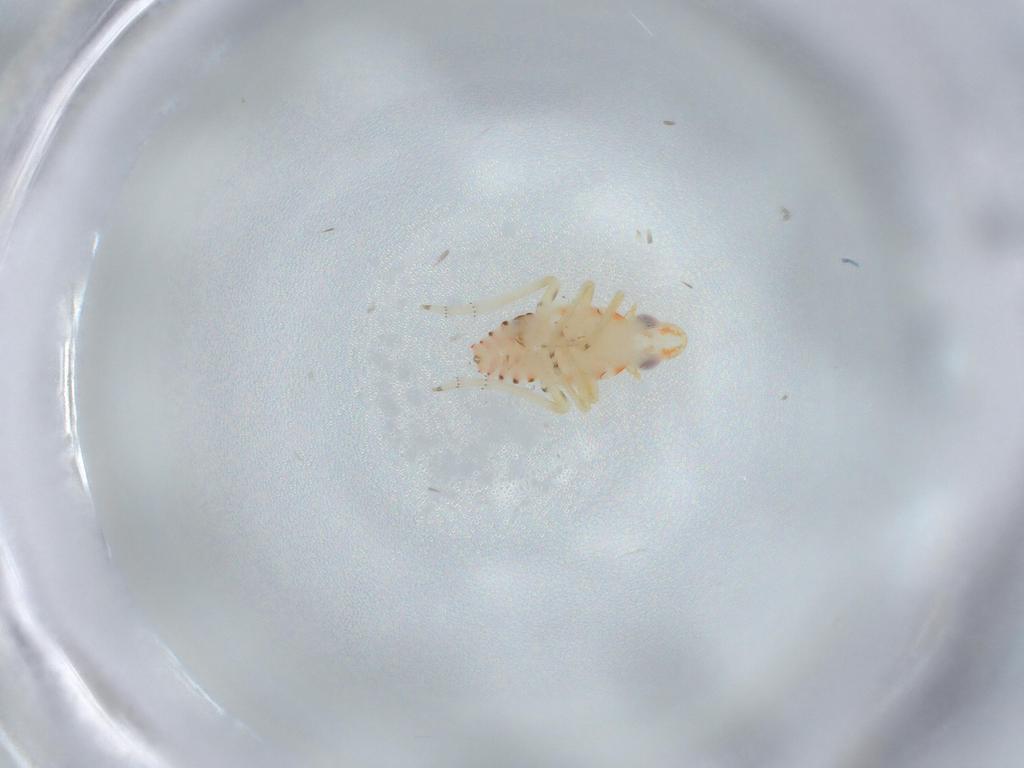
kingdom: Animalia
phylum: Arthropoda
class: Insecta
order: Hemiptera
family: Tropiduchidae
